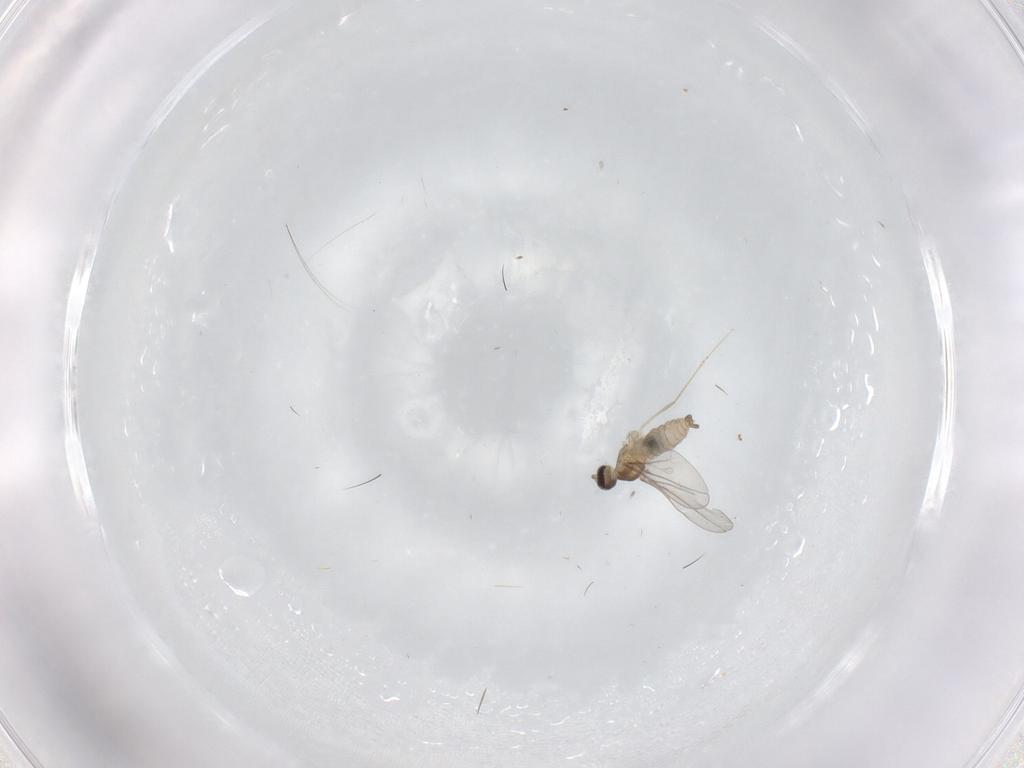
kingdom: Animalia
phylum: Arthropoda
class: Insecta
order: Diptera
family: Cecidomyiidae
